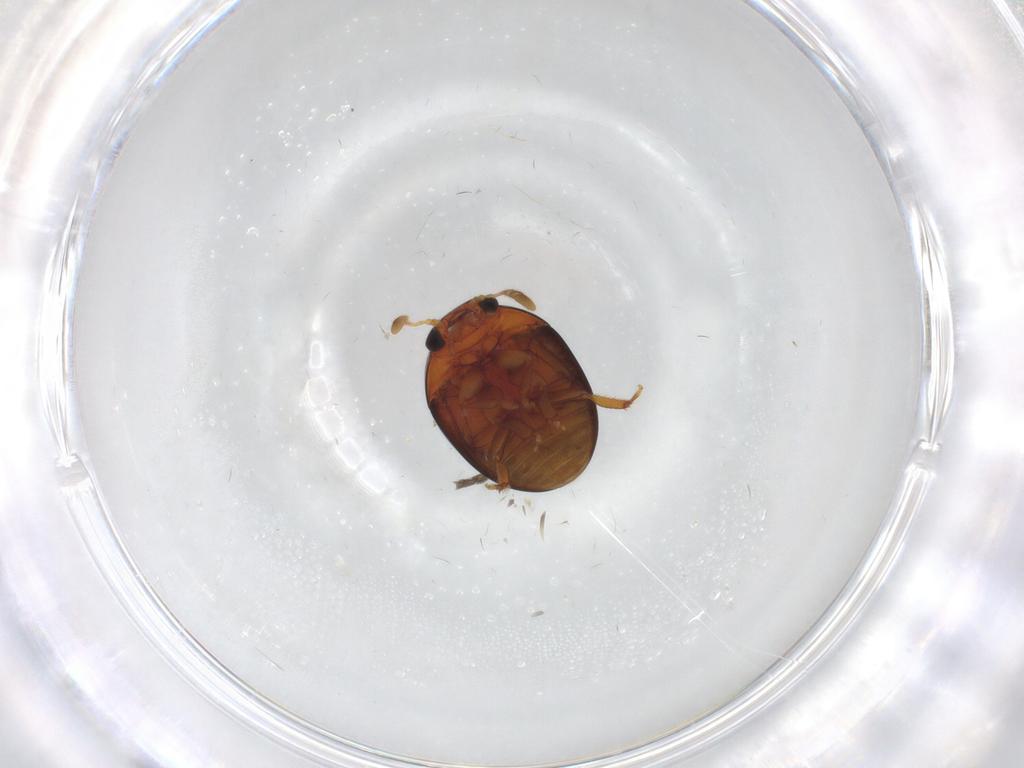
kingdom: Animalia
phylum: Arthropoda
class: Insecta
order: Coleoptera
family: Phalacridae
